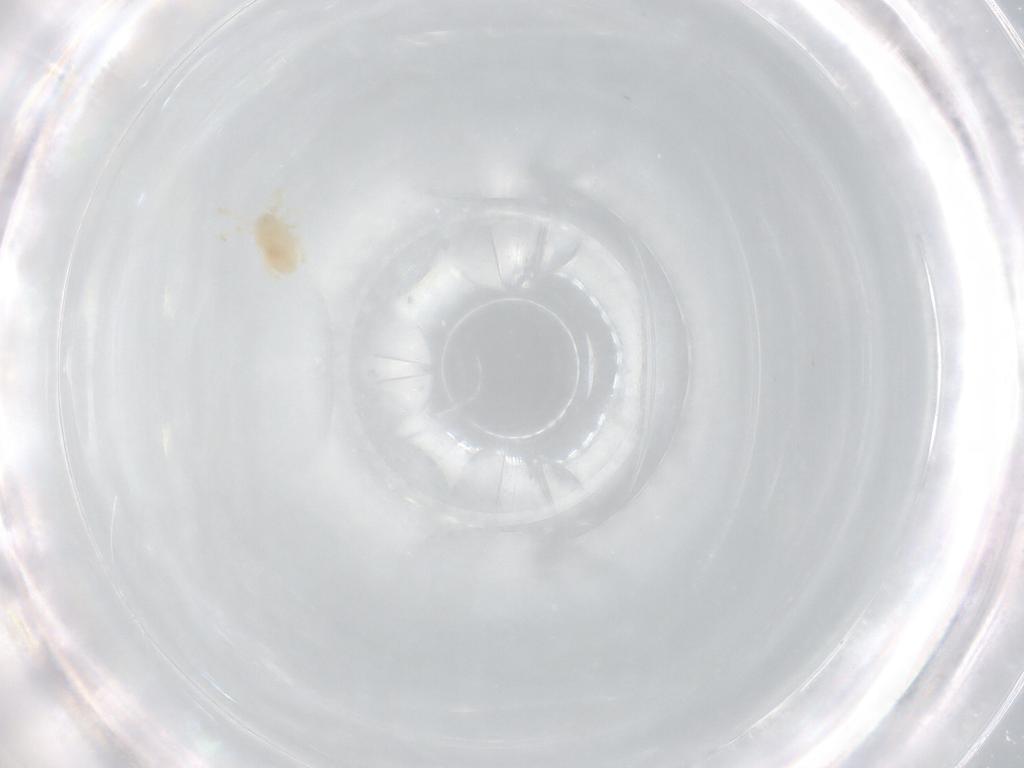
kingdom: Animalia
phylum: Arthropoda
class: Arachnida
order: Trombidiformes
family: Rhagidiidae
